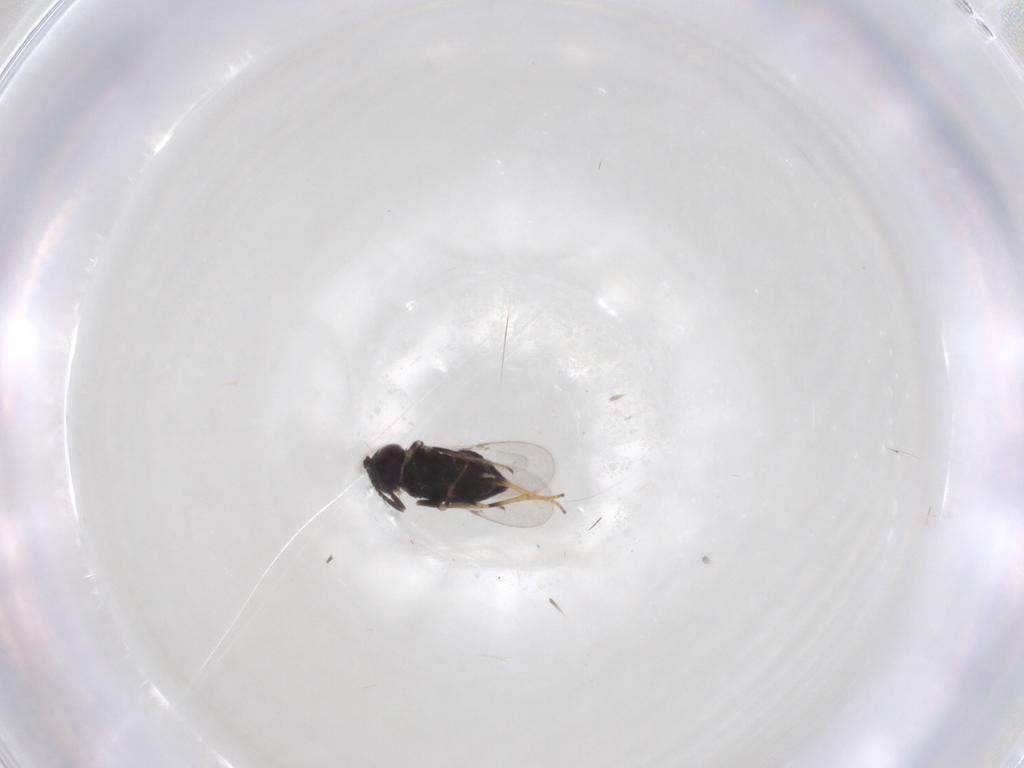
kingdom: Animalia
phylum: Arthropoda
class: Insecta
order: Hymenoptera
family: Encyrtidae
